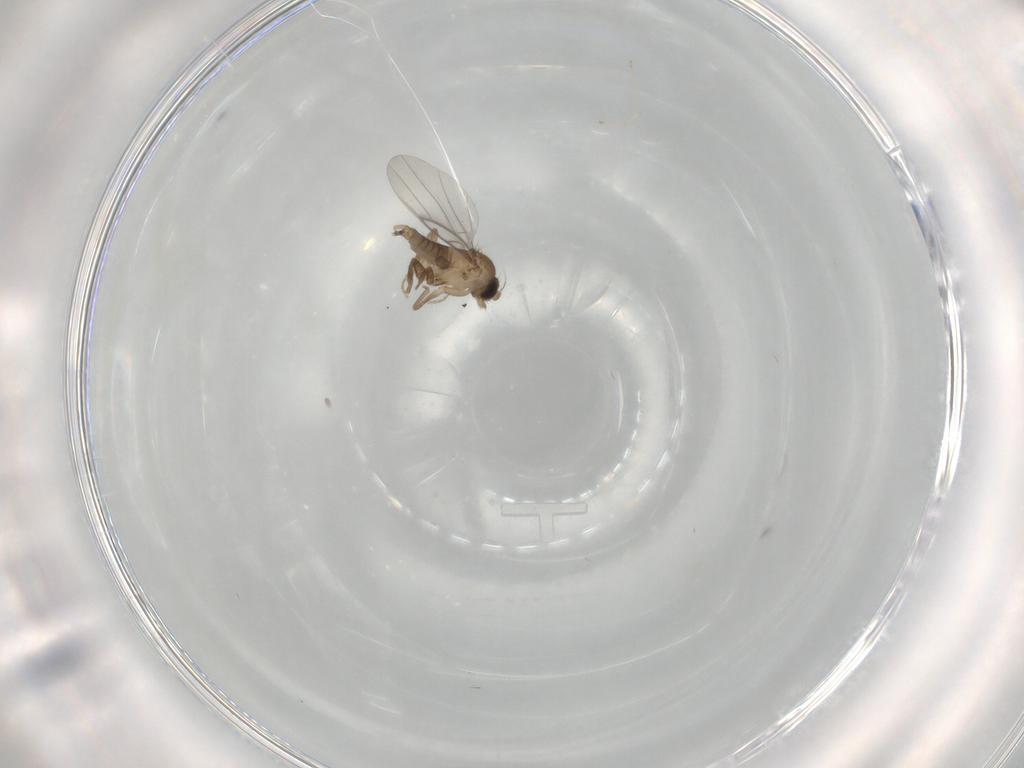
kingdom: Animalia
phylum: Arthropoda
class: Insecta
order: Diptera
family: Cecidomyiidae
